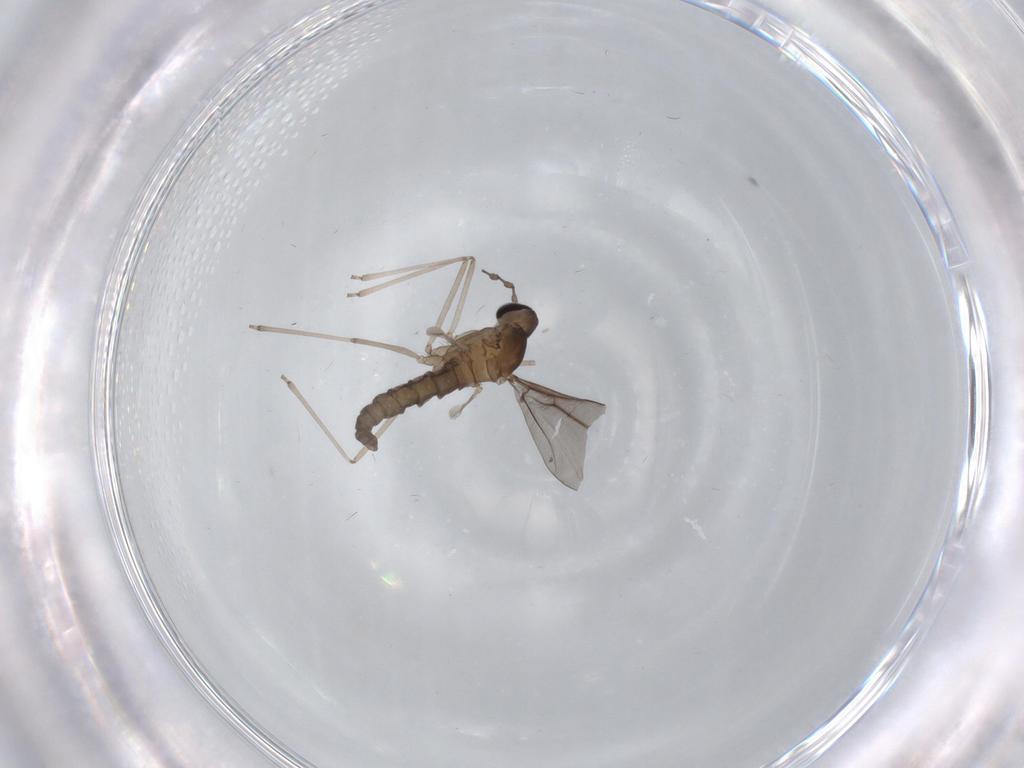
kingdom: Animalia
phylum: Arthropoda
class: Insecta
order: Diptera
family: Cecidomyiidae
